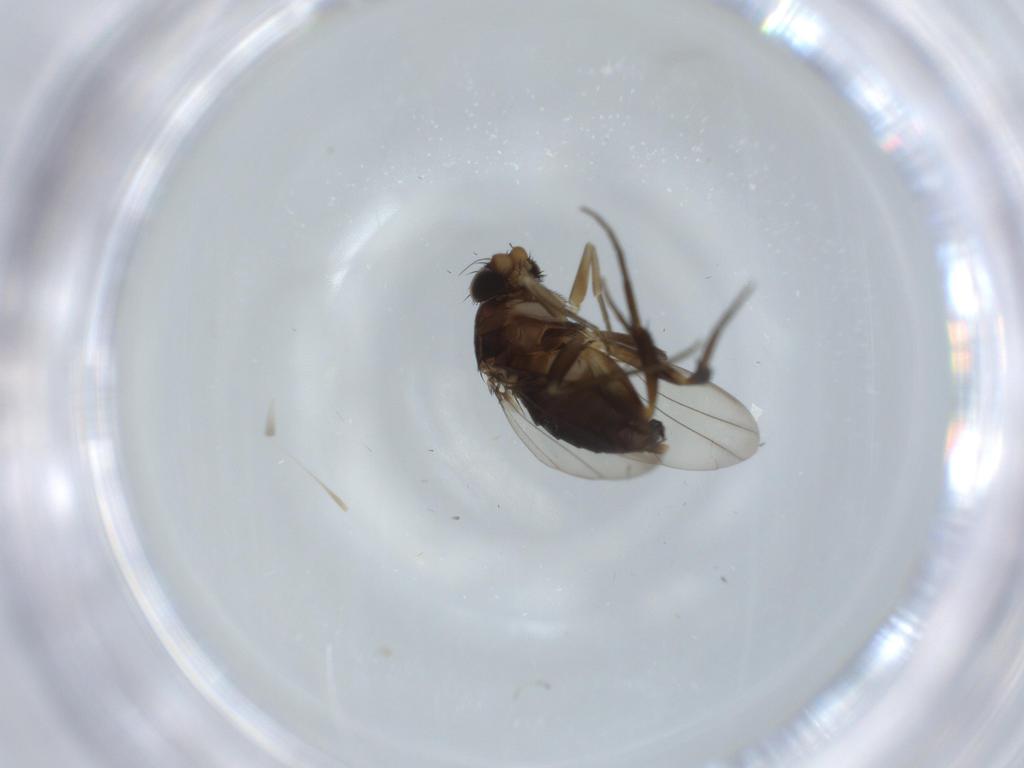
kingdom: Animalia
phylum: Arthropoda
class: Insecta
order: Diptera
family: Phoridae
